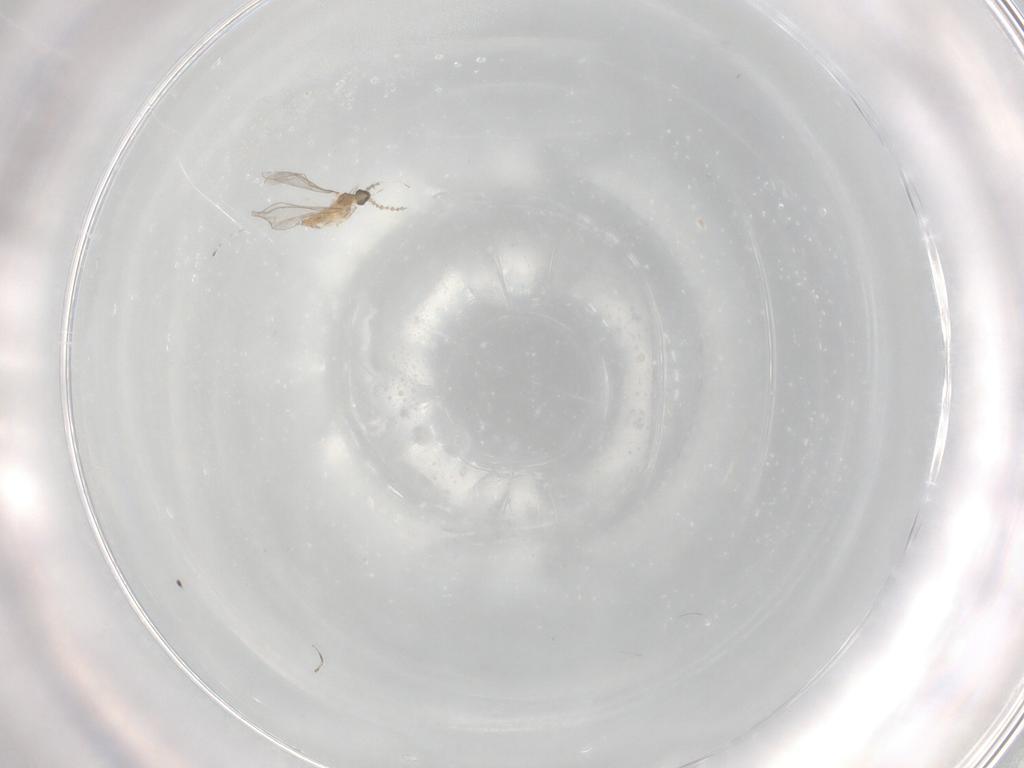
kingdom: Animalia
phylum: Arthropoda
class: Insecta
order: Diptera
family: Cecidomyiidae
